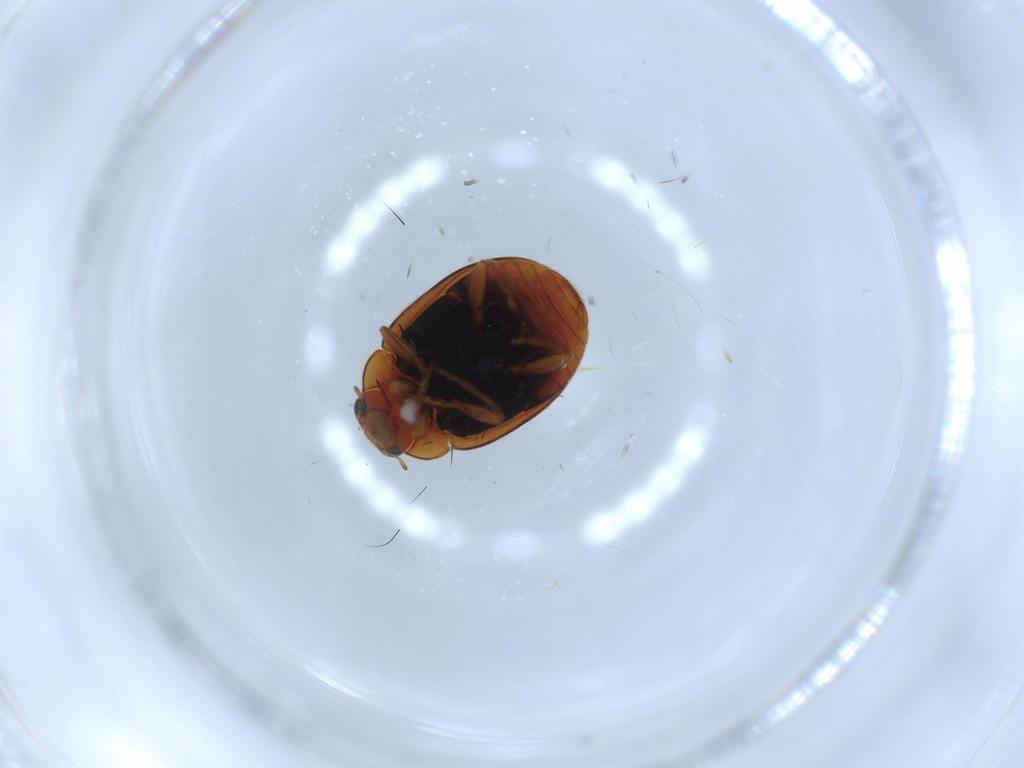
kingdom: Animalia
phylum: Arthropoda
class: Insecta
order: Coleoptera
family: Coccinellidae
